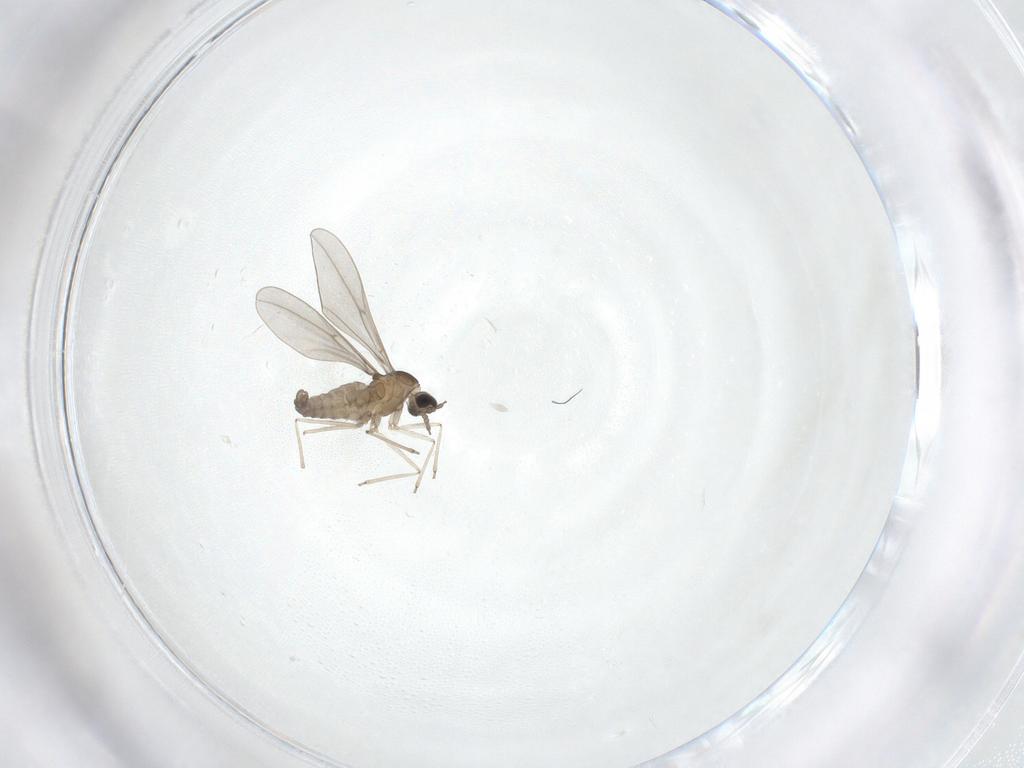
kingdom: Animalia
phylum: Arthropoda
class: Insecta
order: Diptera
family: Cecidomyiidae
